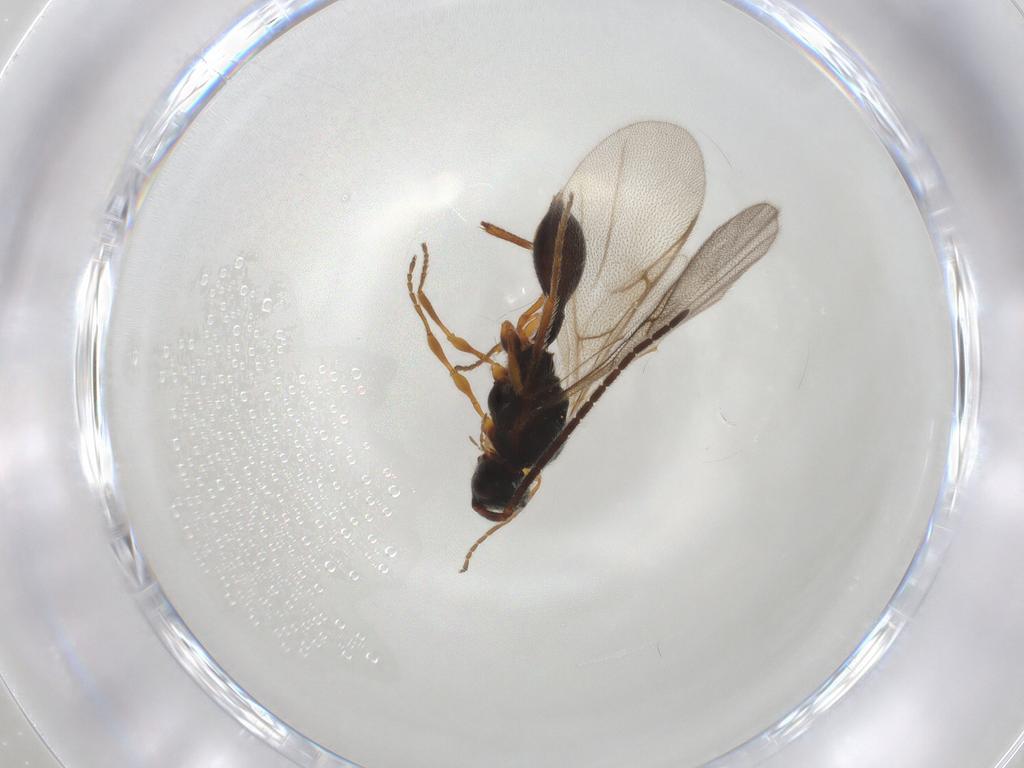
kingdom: Animalia
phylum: Arthropoda
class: Insecta
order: Hymenoptera
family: Diapriidae
